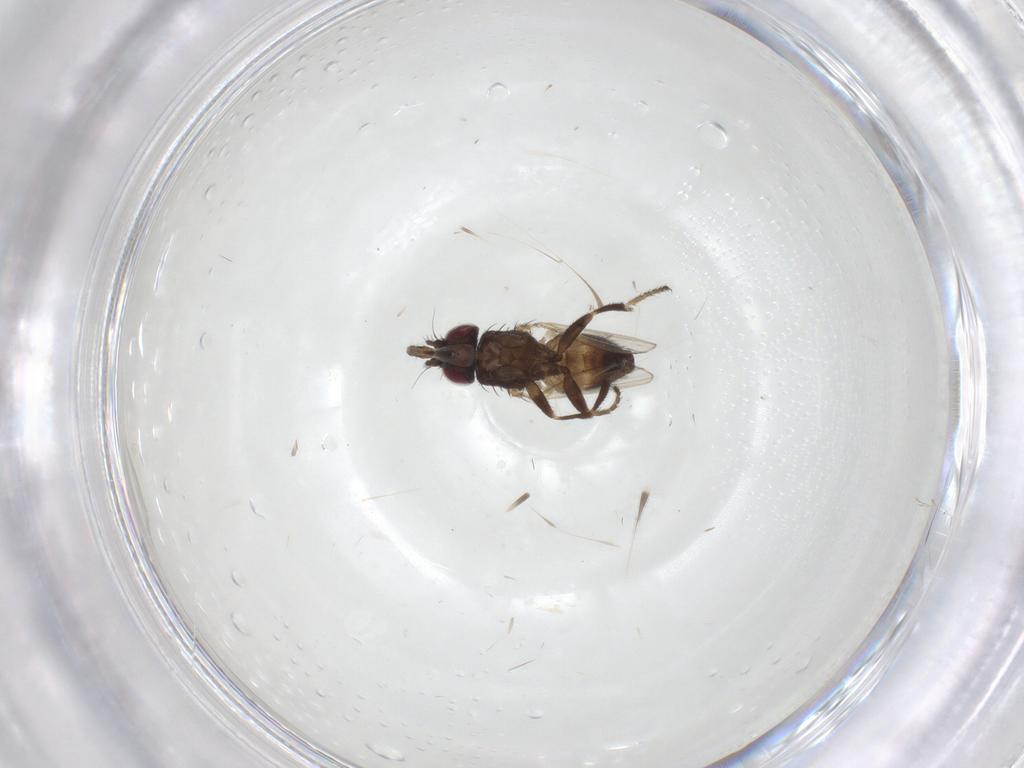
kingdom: Animalia
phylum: Arthropoda
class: Insecta
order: Diptera
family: Milichiidae
